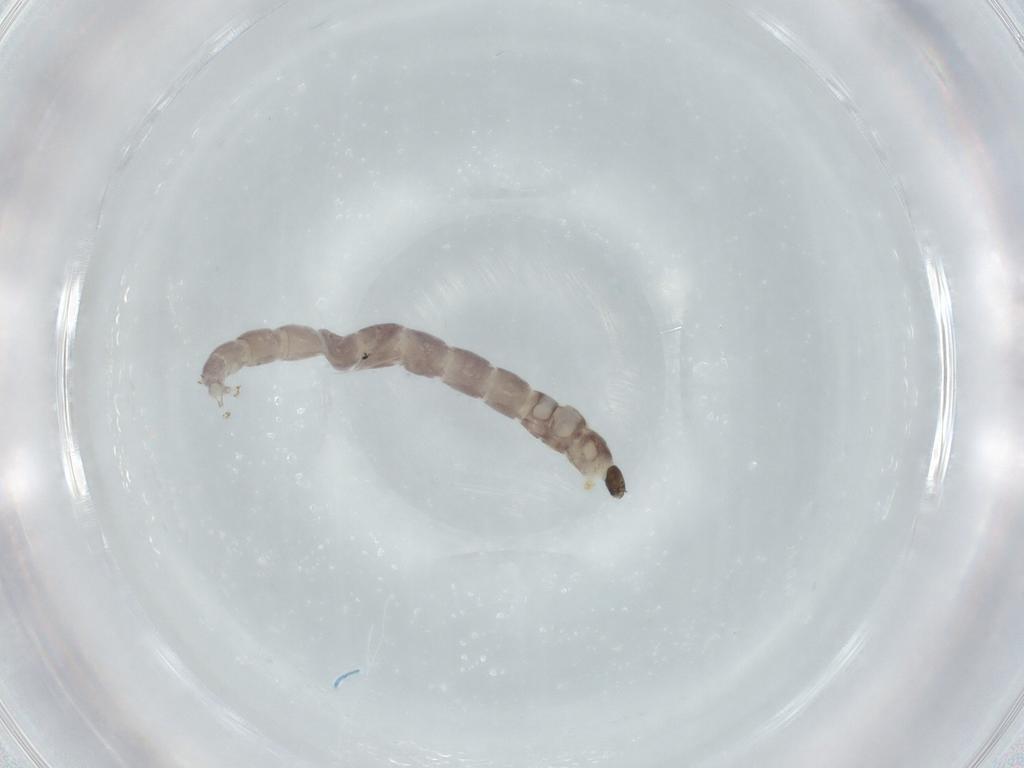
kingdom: Animalia
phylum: Arthropoda
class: Insecta
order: Diptera
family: Chironomidae
